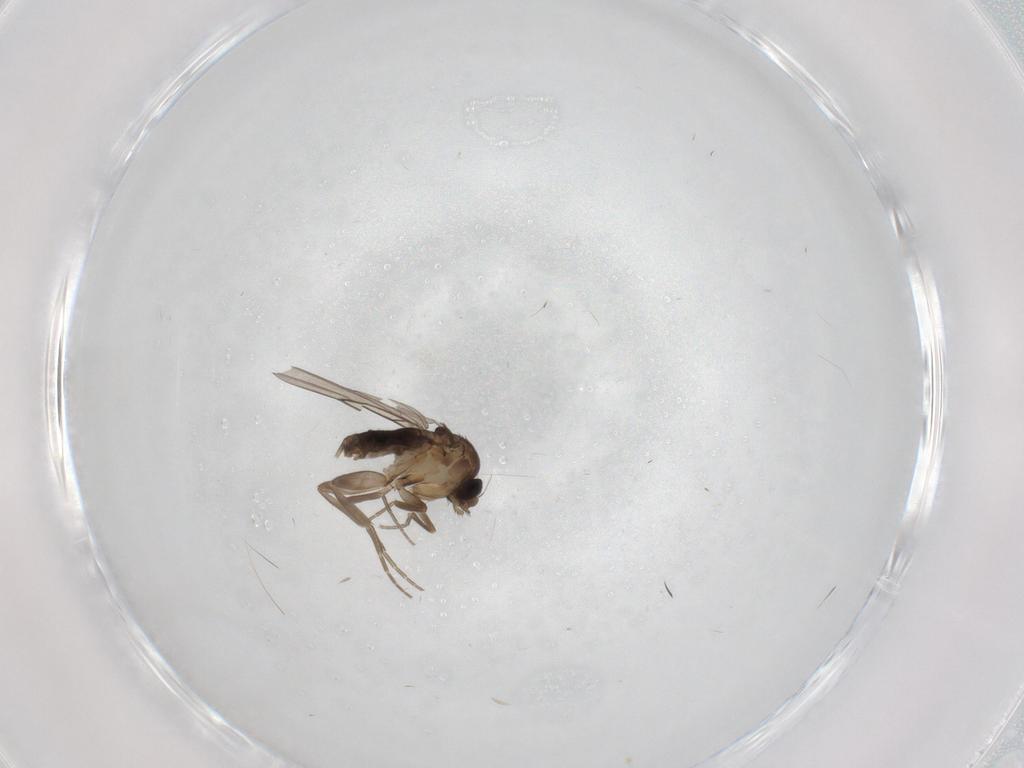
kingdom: Animalia
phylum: Arthropoda
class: Insecta
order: Diptera
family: Phoridae
